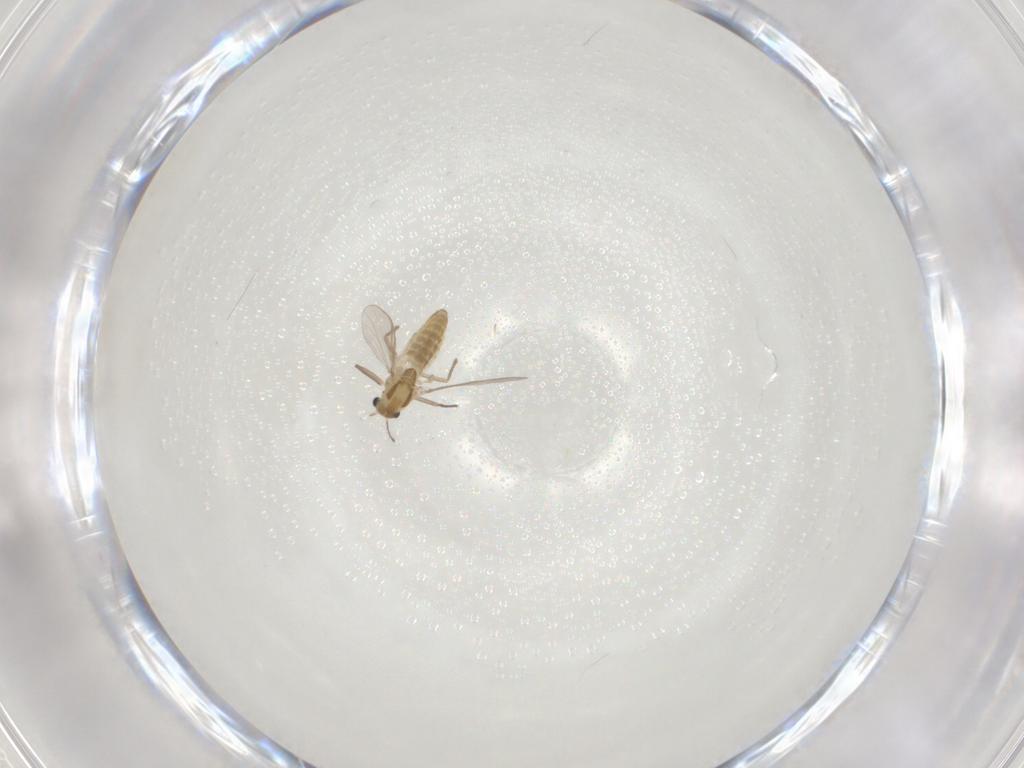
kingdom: Animalia
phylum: Arthropoda
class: Insecta
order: Diptera
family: Chironomidae
